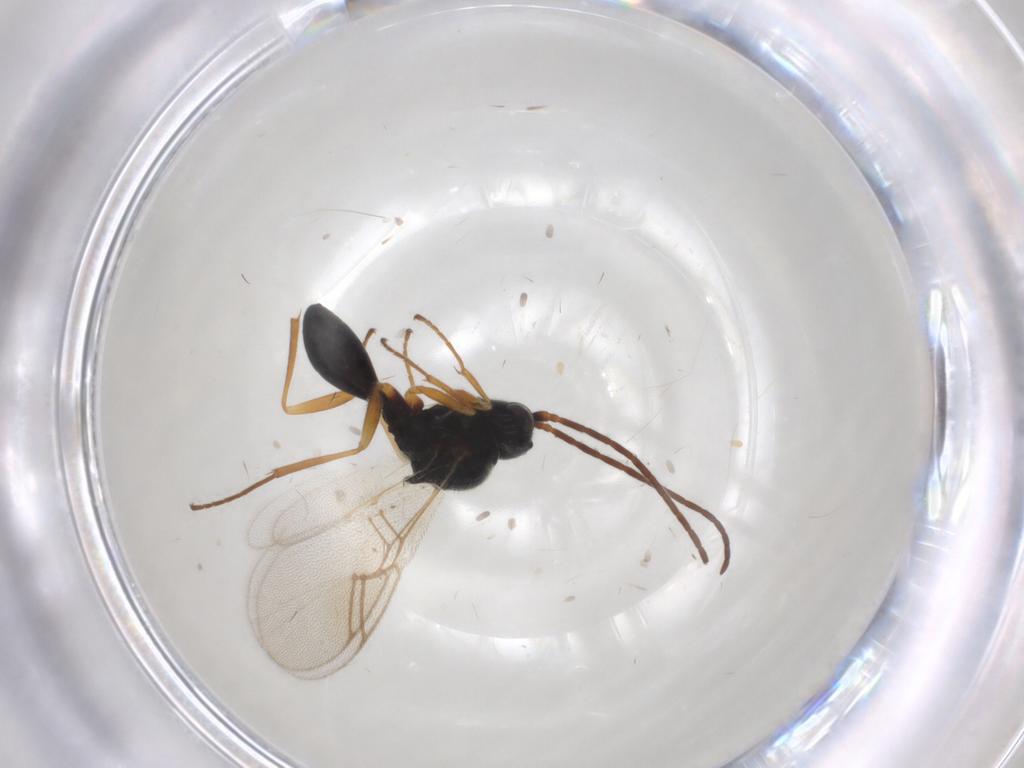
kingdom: Animalia
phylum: Arthropoda
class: Insecta
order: Hymenoptera
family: Figitidae
